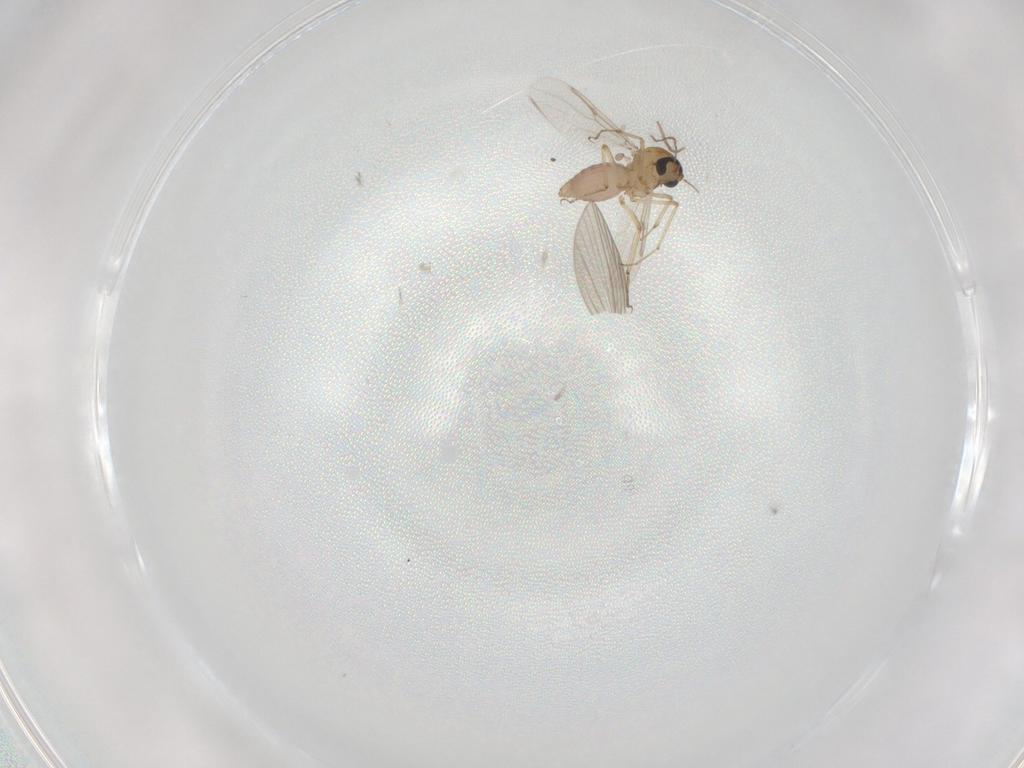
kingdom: Animalia
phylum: Arthropoda
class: Insecta
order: Diptera
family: Chironomidae
